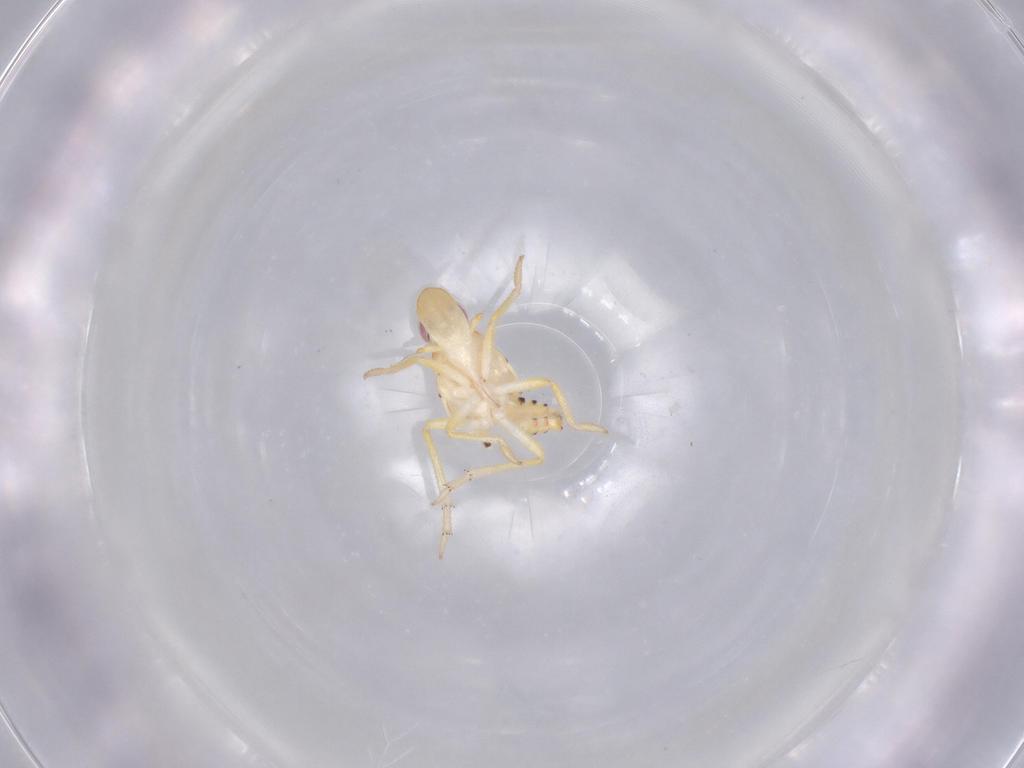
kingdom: Animalia
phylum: Arthropoda
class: Insecta
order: Hemiptera
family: Tropiduchidae
